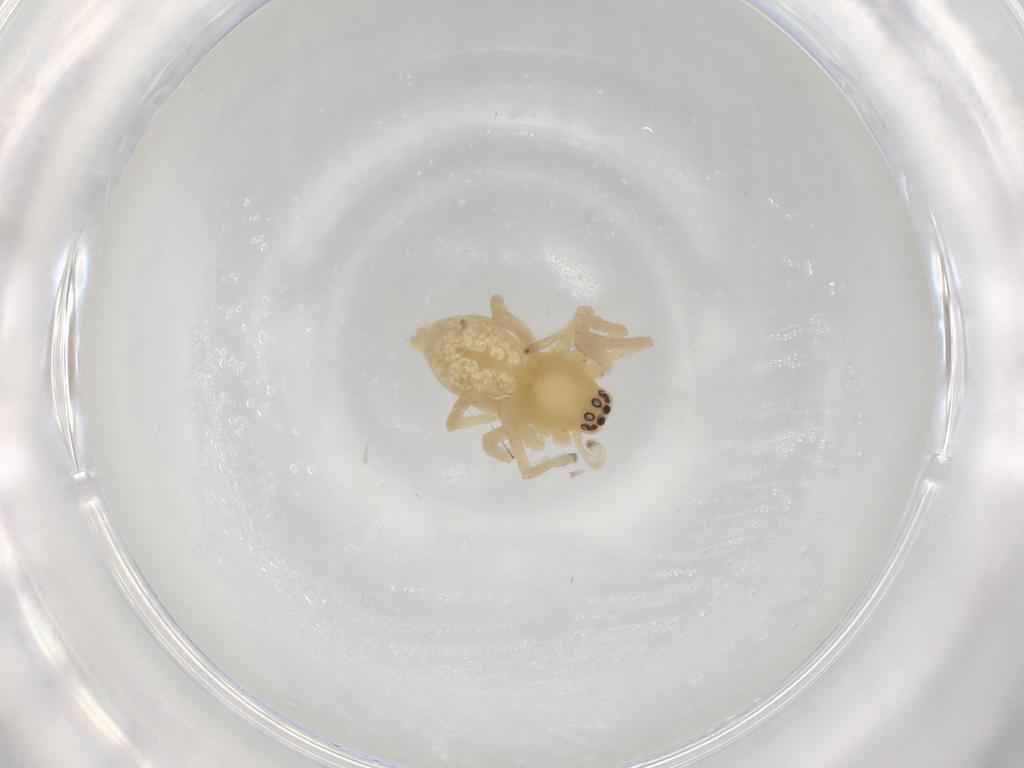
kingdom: Animalia
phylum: Arthropoda
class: Arachnida
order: Araneae
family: Cheiracanthiidae
